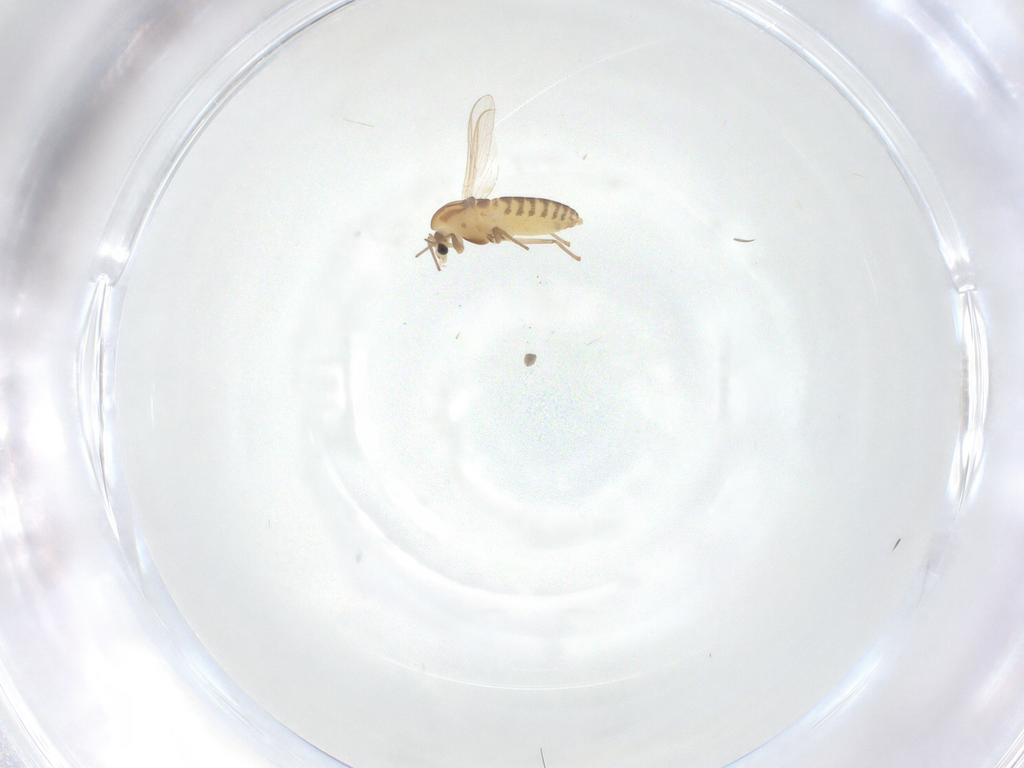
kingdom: Animalia
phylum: Arthropoda
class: Insecta
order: Diptera
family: Chironomidae
